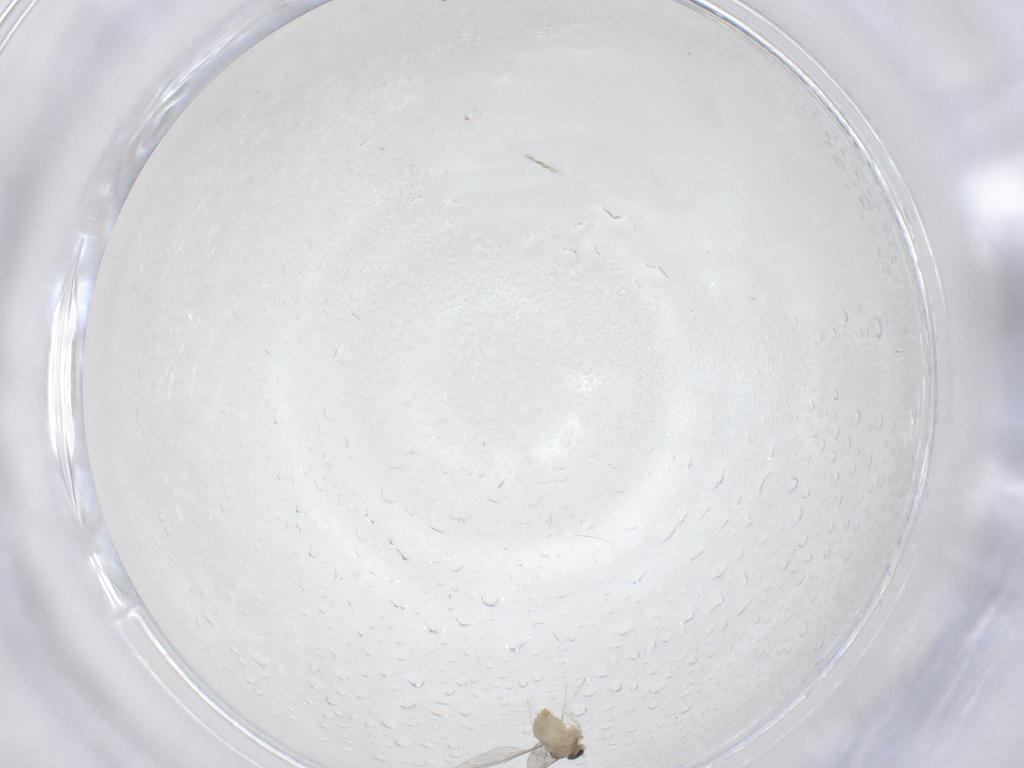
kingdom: Animalia
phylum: Arthropoda
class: Insecta
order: Diptera
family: Cecidomyiidae
